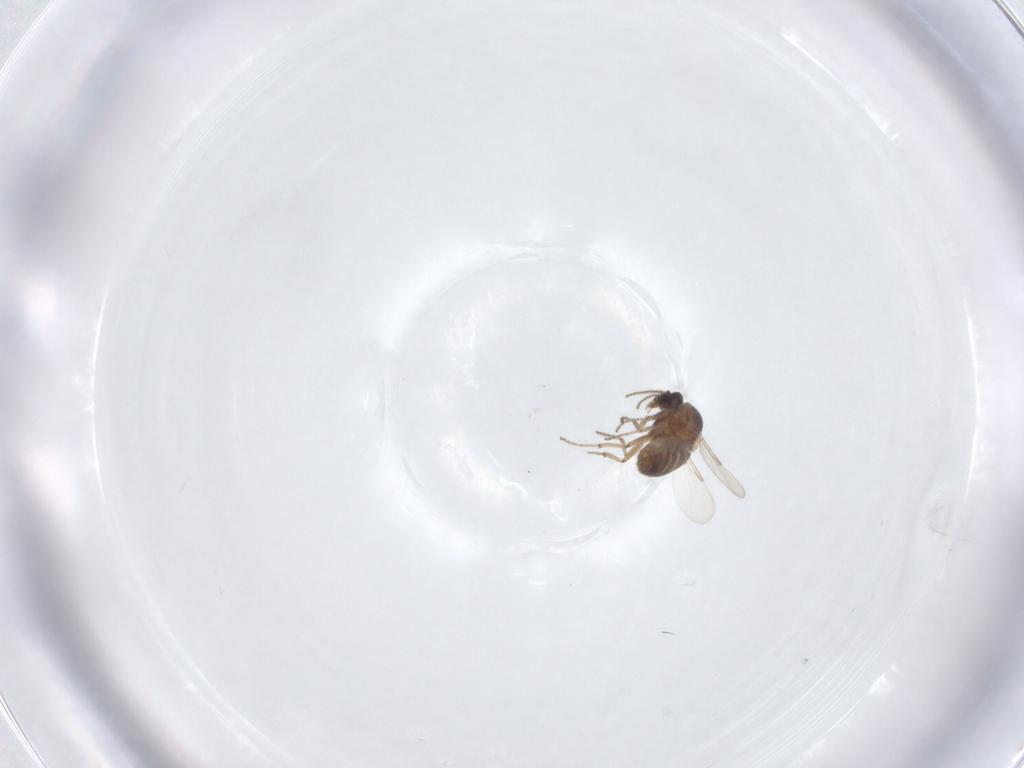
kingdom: Animalia
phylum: Arthropoda
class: Insecta
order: Diptera
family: Ceratopogonidae
